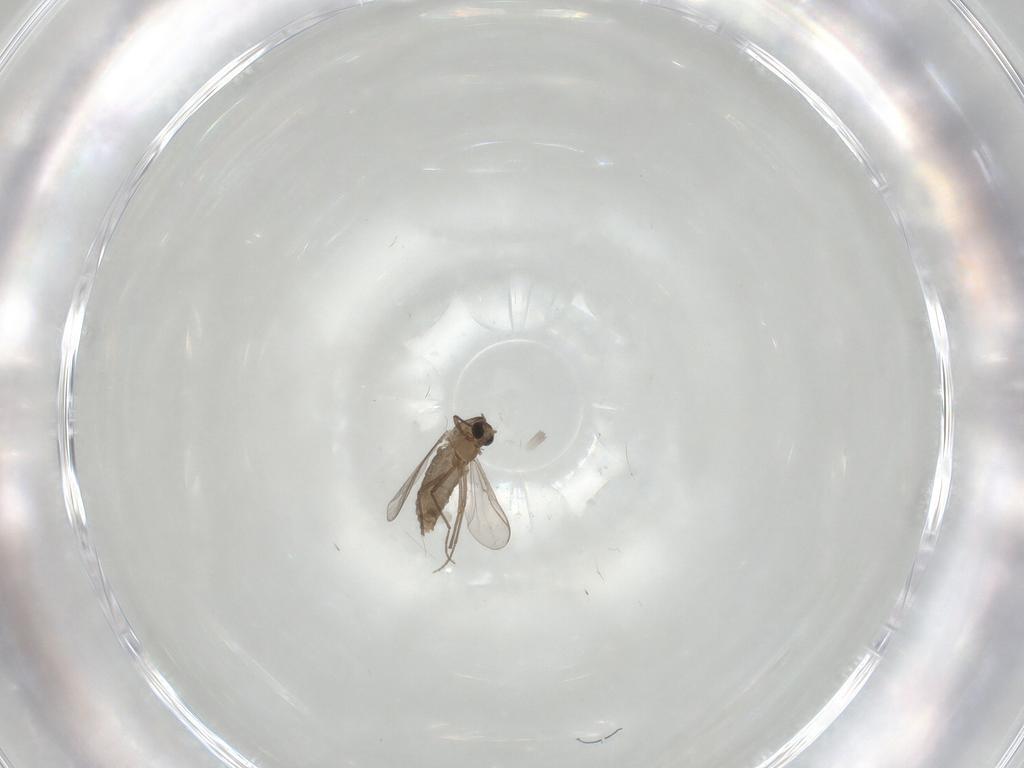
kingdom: Animalia
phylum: Arthropoda
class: Insecta
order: Diptera
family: Chironomidae
